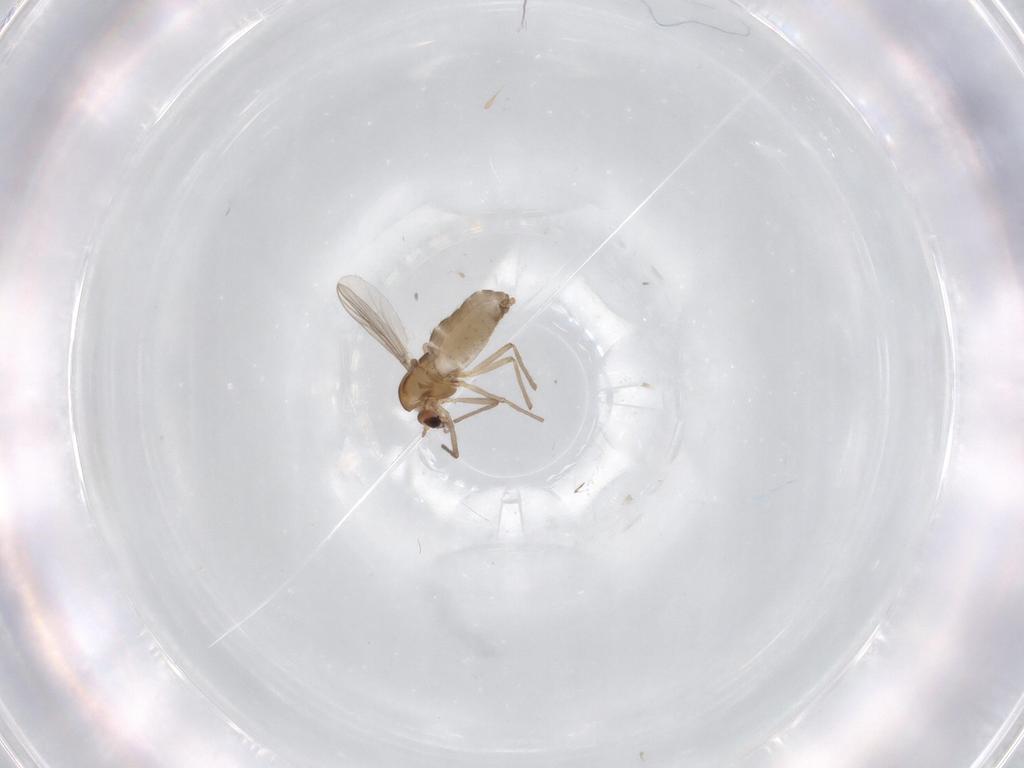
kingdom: Animalia
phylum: Arthropoda
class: Insecta
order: Diptera
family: Chironomidae
